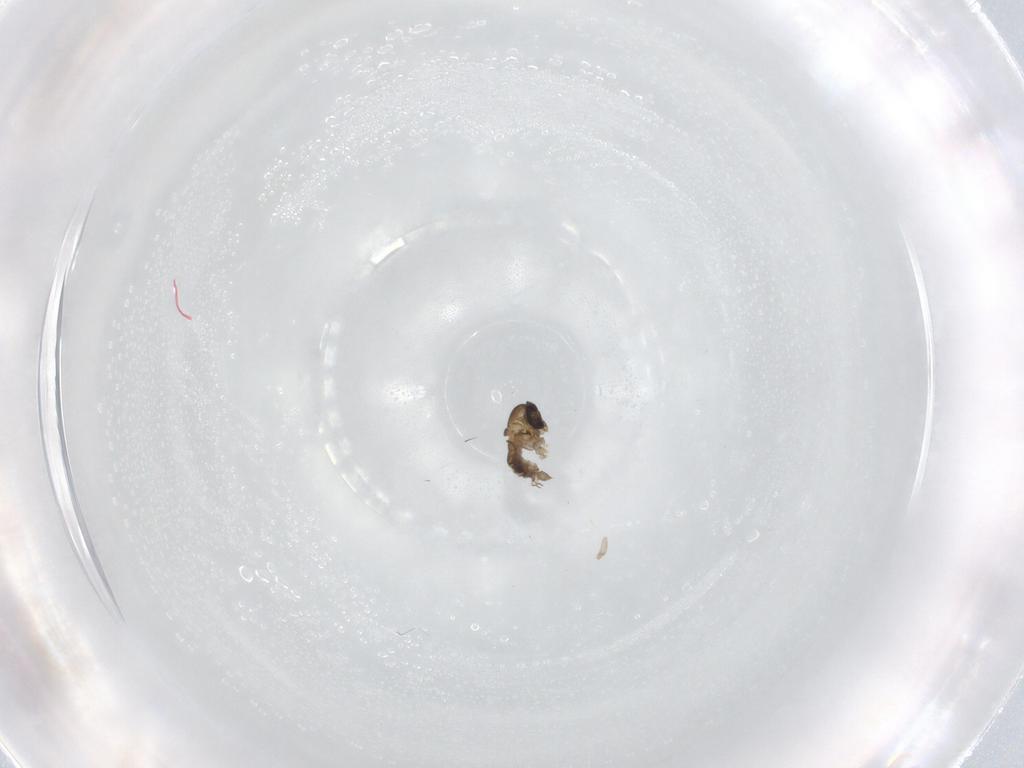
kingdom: Animalia
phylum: Arthropoda
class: Insecta
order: Diptera
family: Psychodidae
